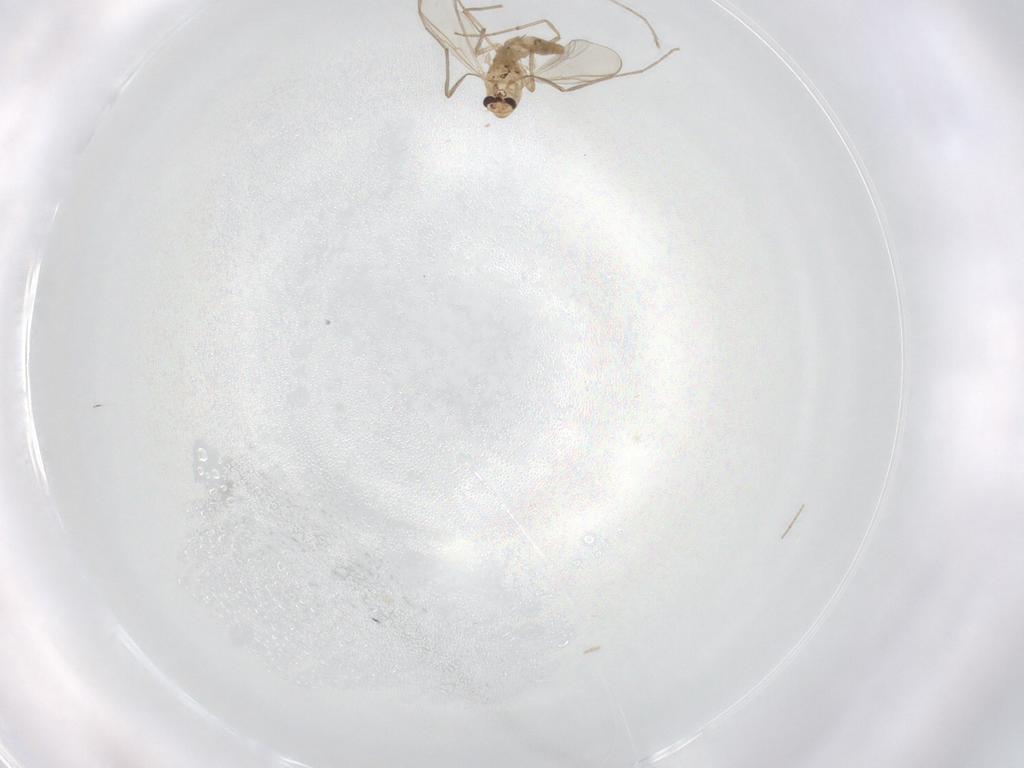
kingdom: Animalia
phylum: Arthropoda
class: Insecta
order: Diptera
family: Chironomidae
